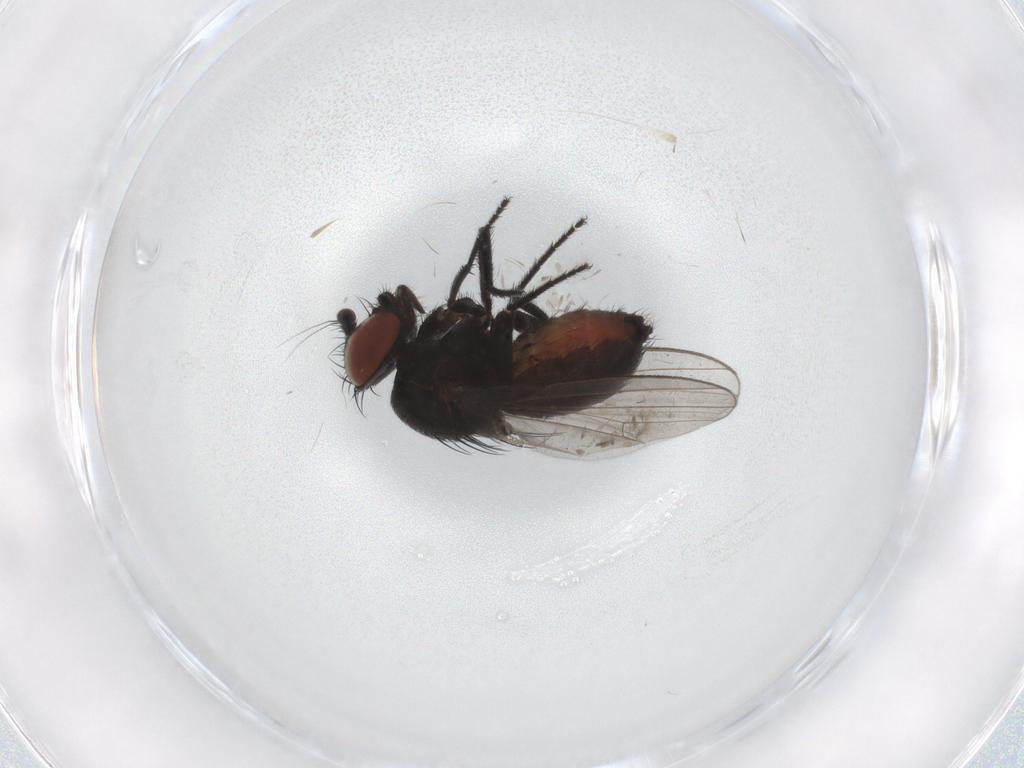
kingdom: Animalia
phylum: Arthropoda
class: Insecta
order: Diptera
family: Milichiidae
